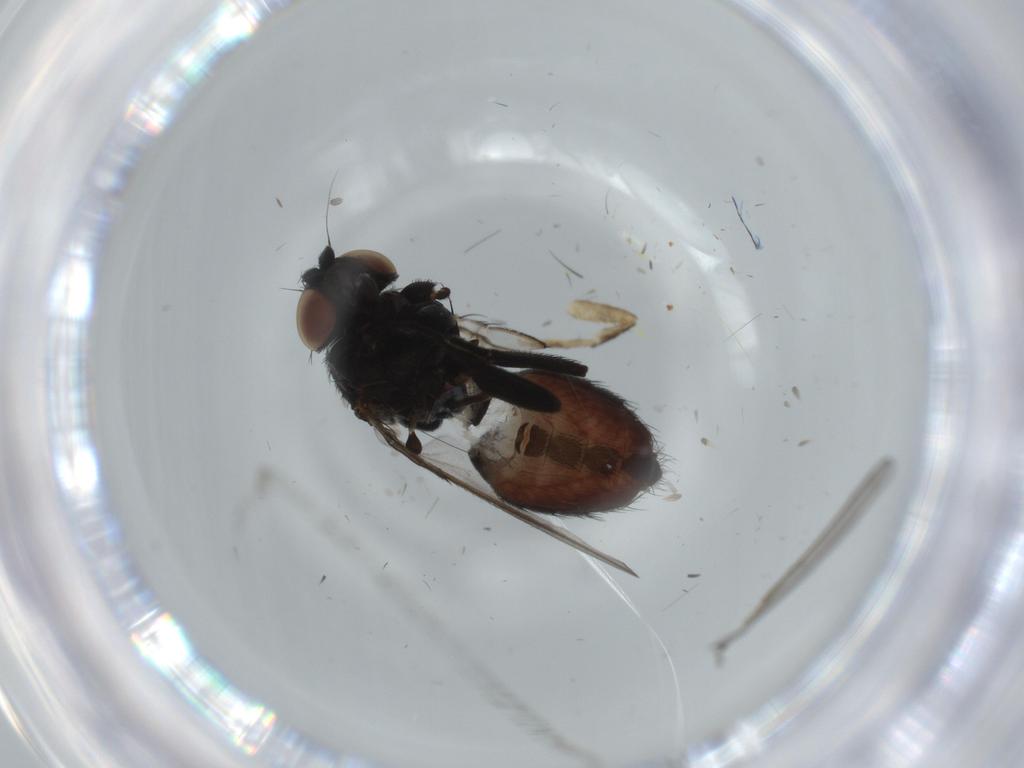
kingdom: Animalia
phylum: Arthropoda
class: Insecta
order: Diptera
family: Milichiidae
